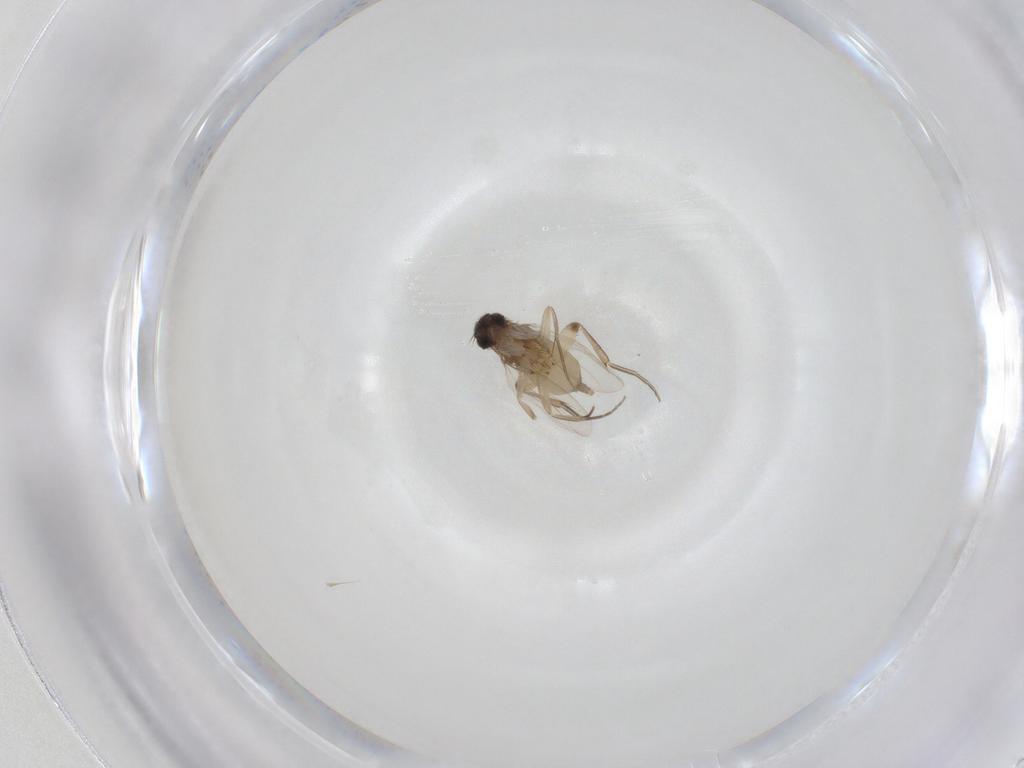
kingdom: Animalia
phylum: Arthropoda
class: Insecta
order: Diptera
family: Phoridae
